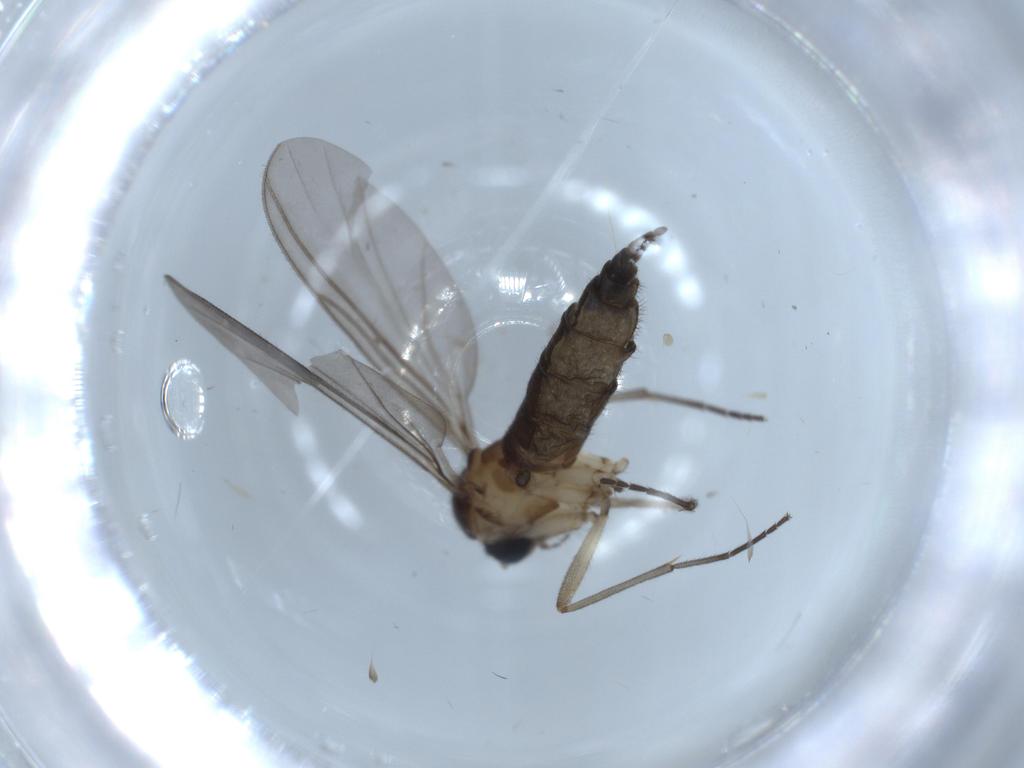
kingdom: Animalia
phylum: Arthropoda
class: Insecta
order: Diptera
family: Sciaridae
